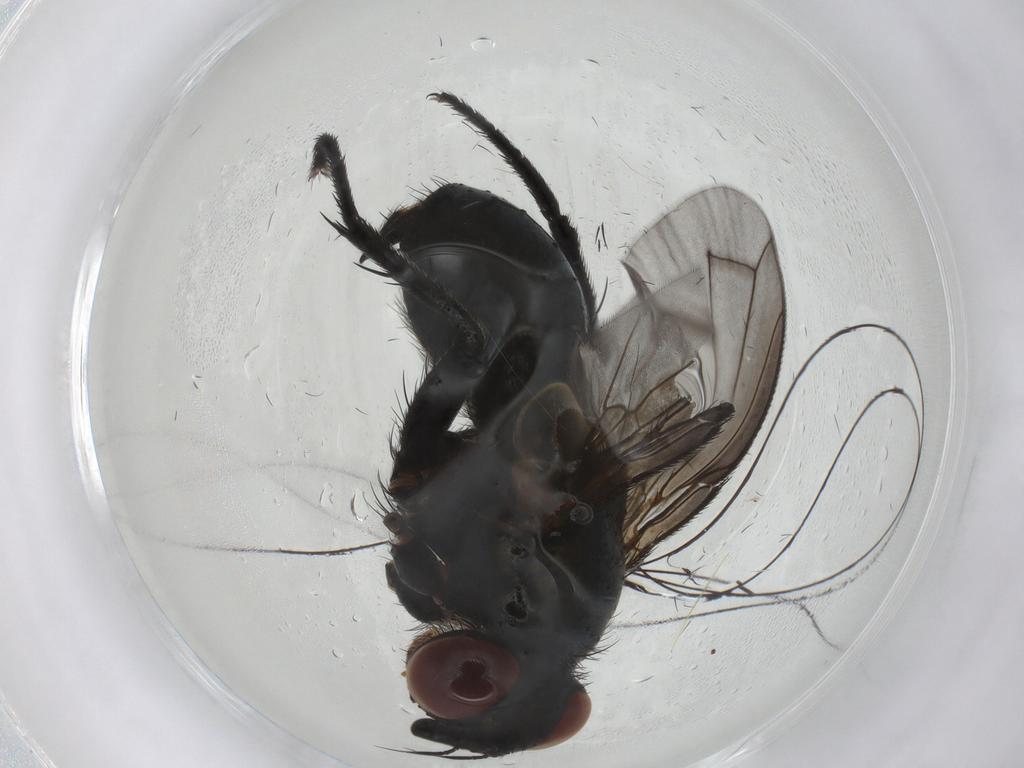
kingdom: Animalia
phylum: Arthropoda
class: Insecta
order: Diptera
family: Tachinidae
